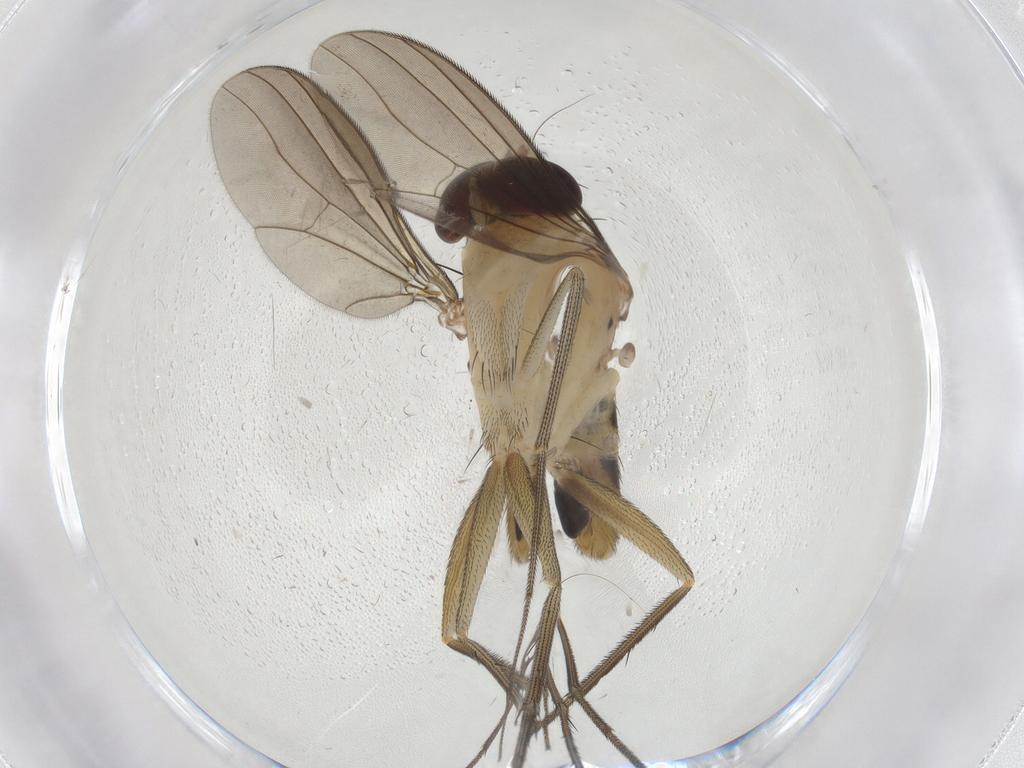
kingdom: Animalia
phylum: Arthropoda
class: Insecta
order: Diptera
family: Dolichopodidae
